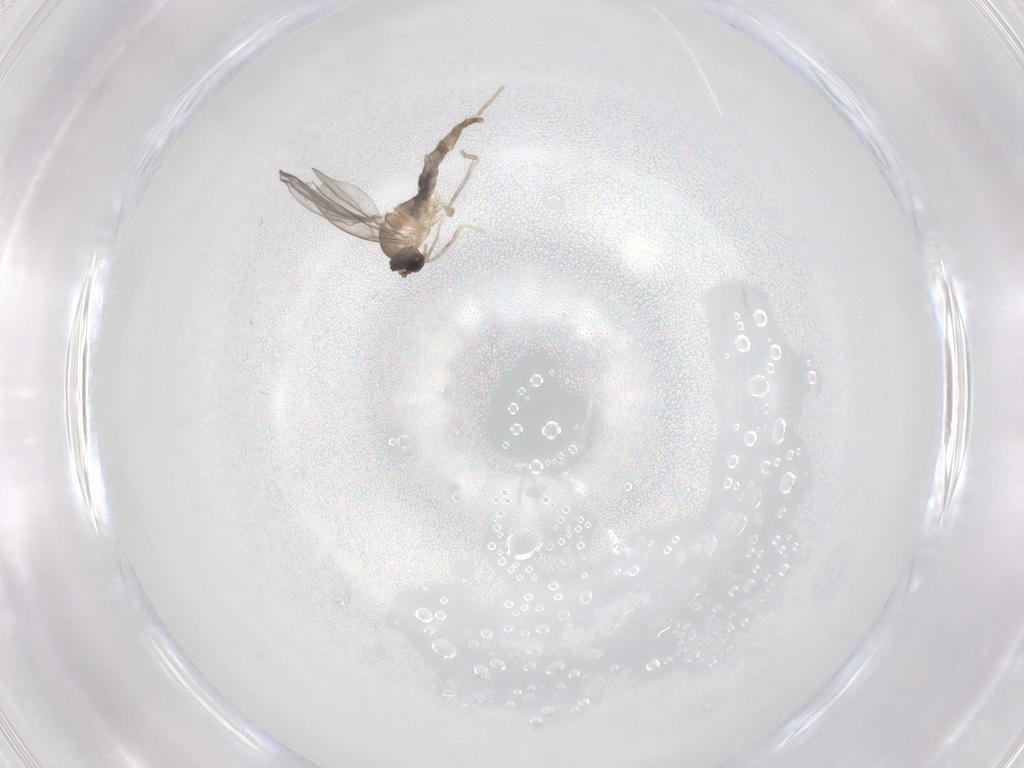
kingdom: Animalia
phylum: Arthropoda
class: Insecta
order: Diptera
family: Cecidomyiidae
